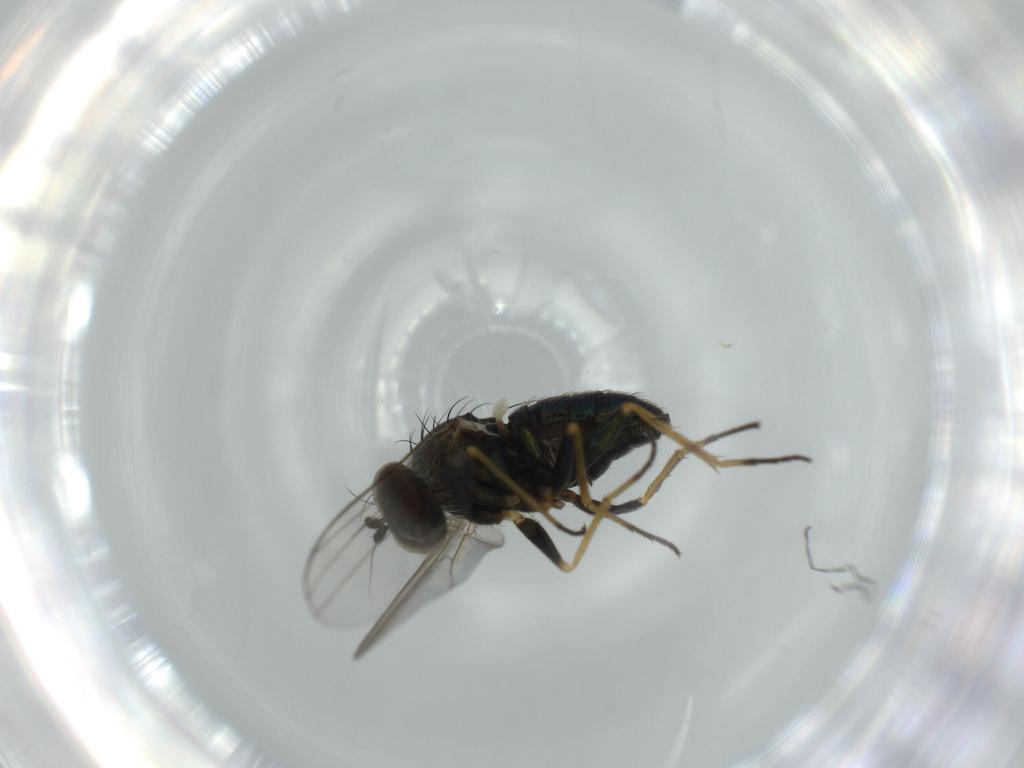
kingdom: Animalia
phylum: Arthropoda
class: Insecta
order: Diptera
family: Dolichopodidae
